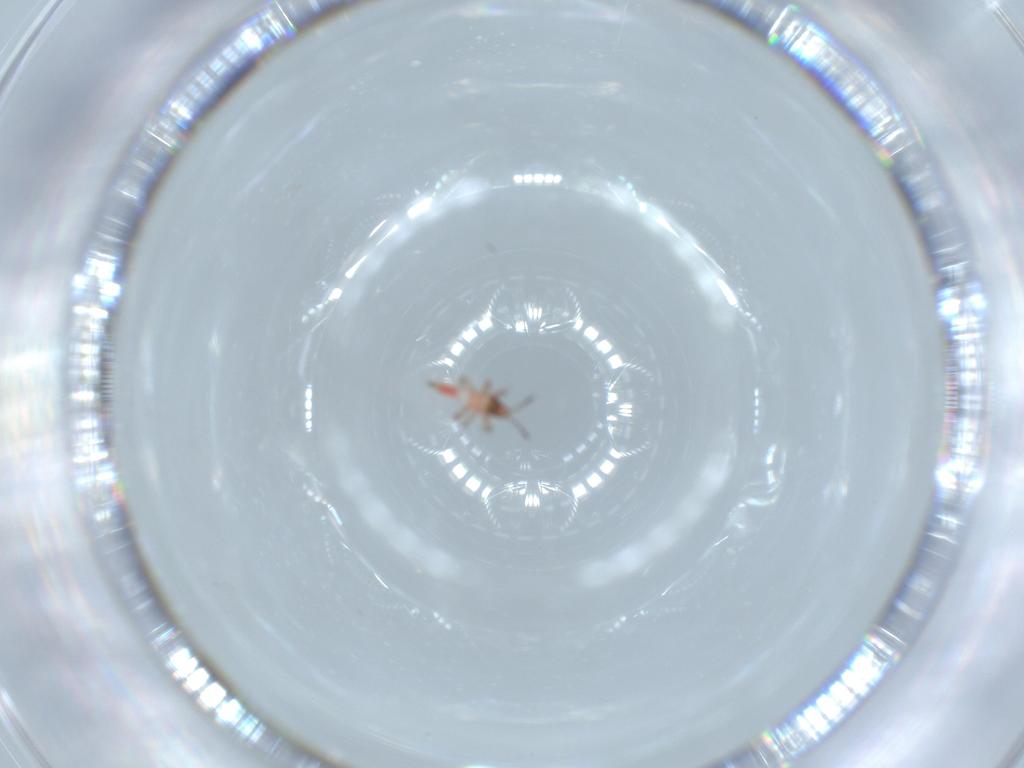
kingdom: Animalia
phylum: Arthropoda
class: Insecta
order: Thysanoptera
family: Phlaeothripidae
